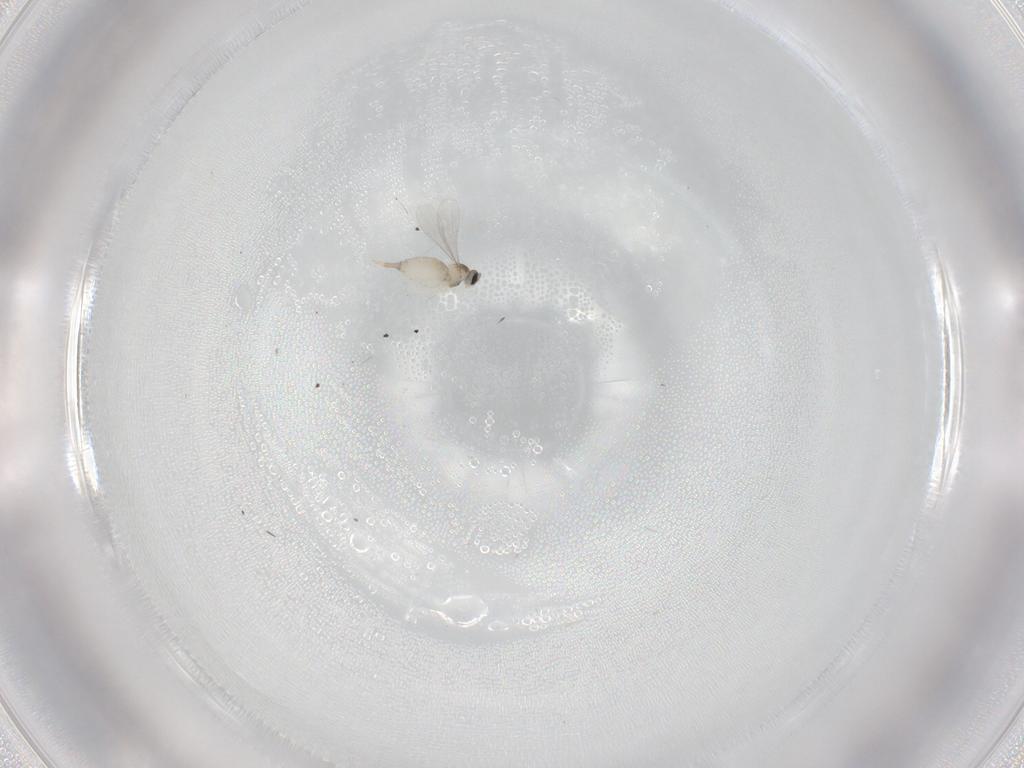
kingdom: Animalia
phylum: Arthropoda
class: Insecta
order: Diptera
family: Chironomidae
